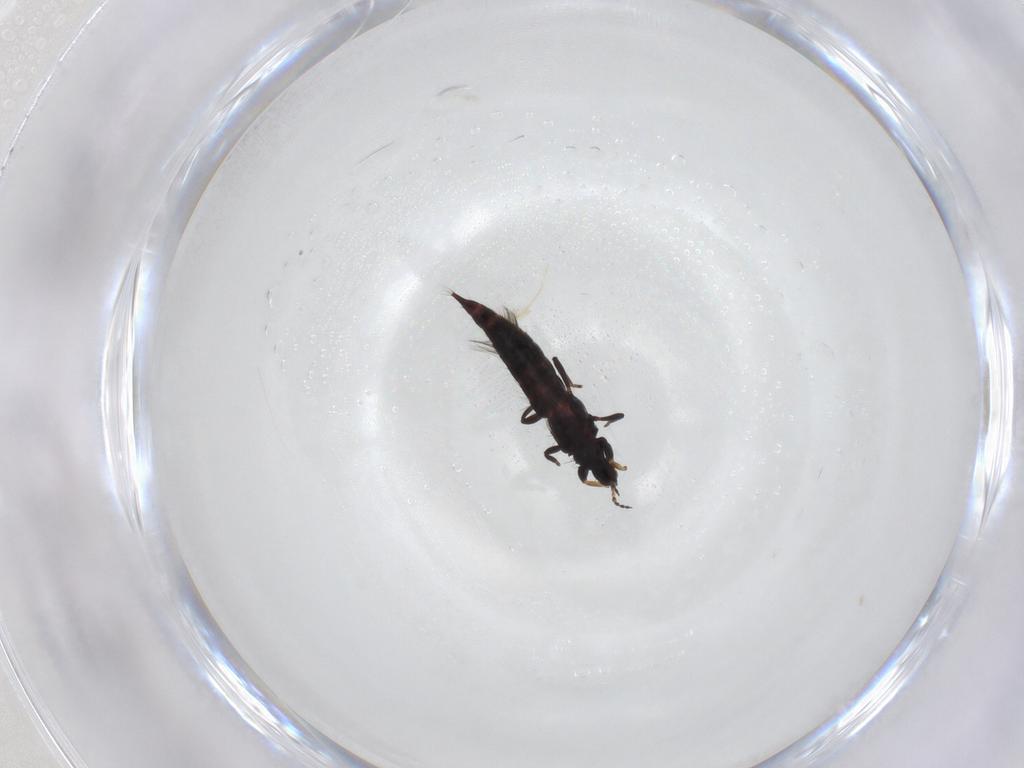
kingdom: Animalia
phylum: Arthropoda
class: Insecta
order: Thysanoptera
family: Phlaeothripidae
